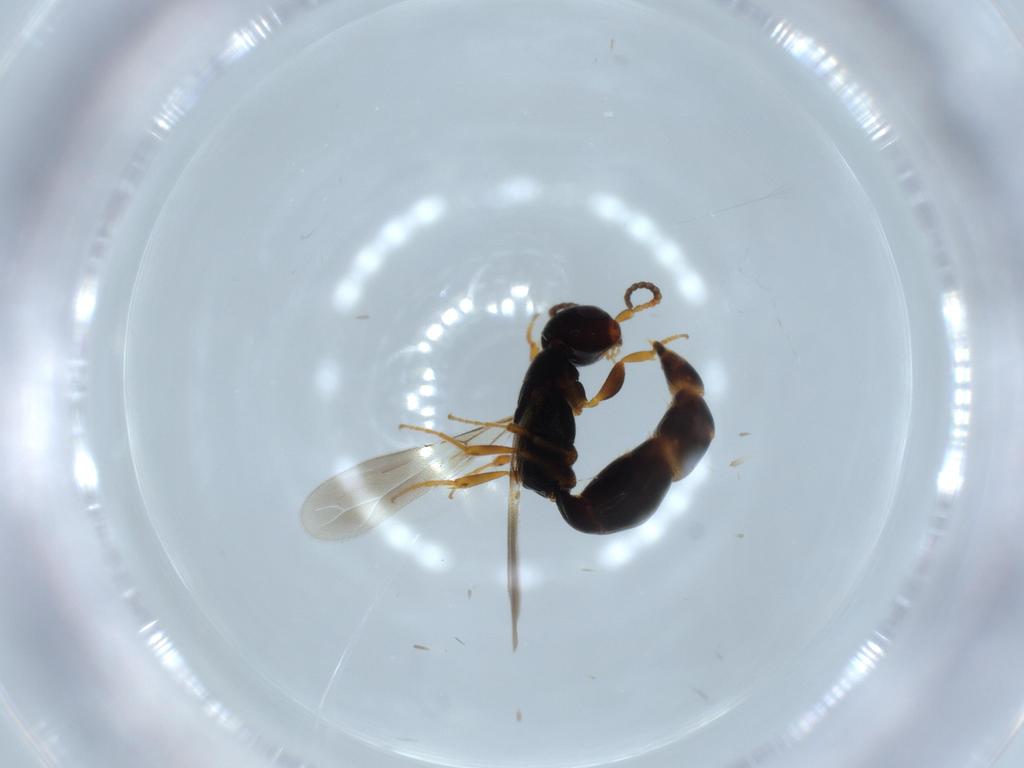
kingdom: Animalia
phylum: Arthropoda
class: Insecta
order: Hymenoptera
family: Bethylidae
